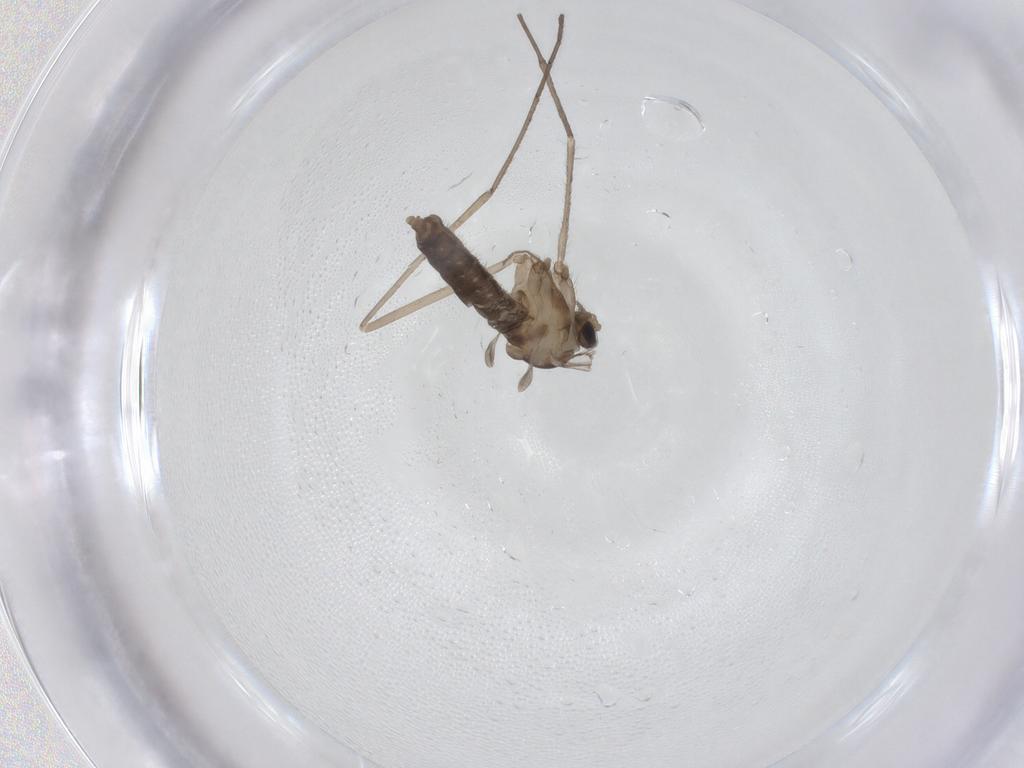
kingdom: Animalia
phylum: Arthropoda
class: Insecta
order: Diptera
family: Cecidomyiidae
